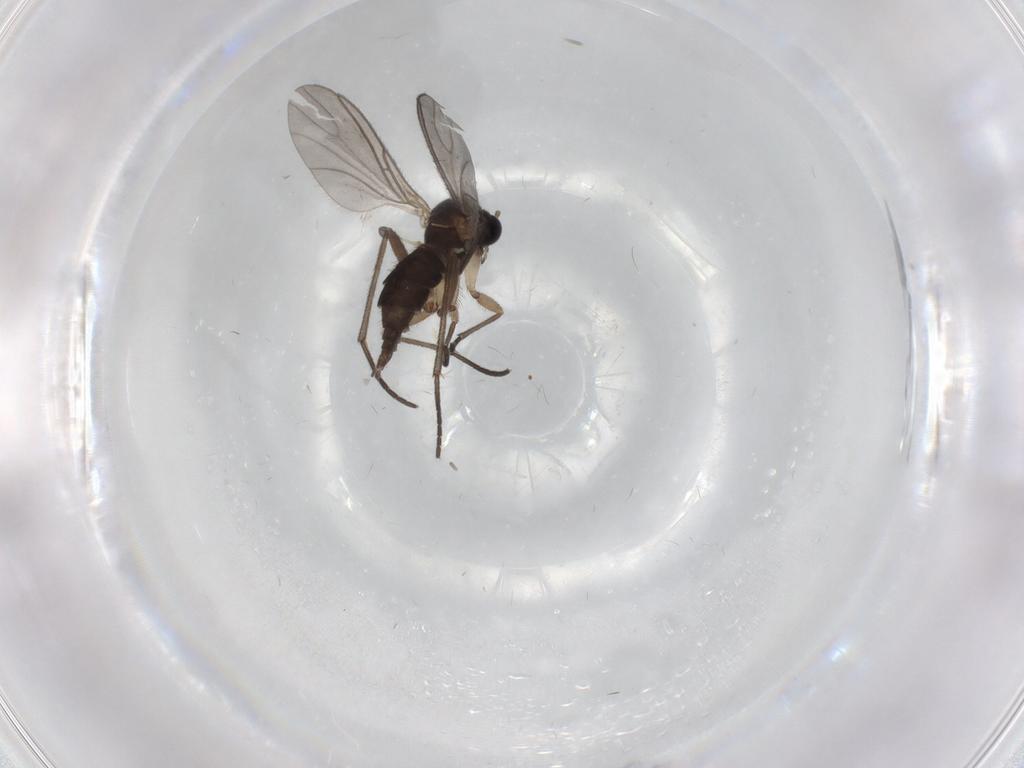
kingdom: Animalia
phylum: Arthropoda
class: Insecta
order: Diptera
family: Sciaridae
